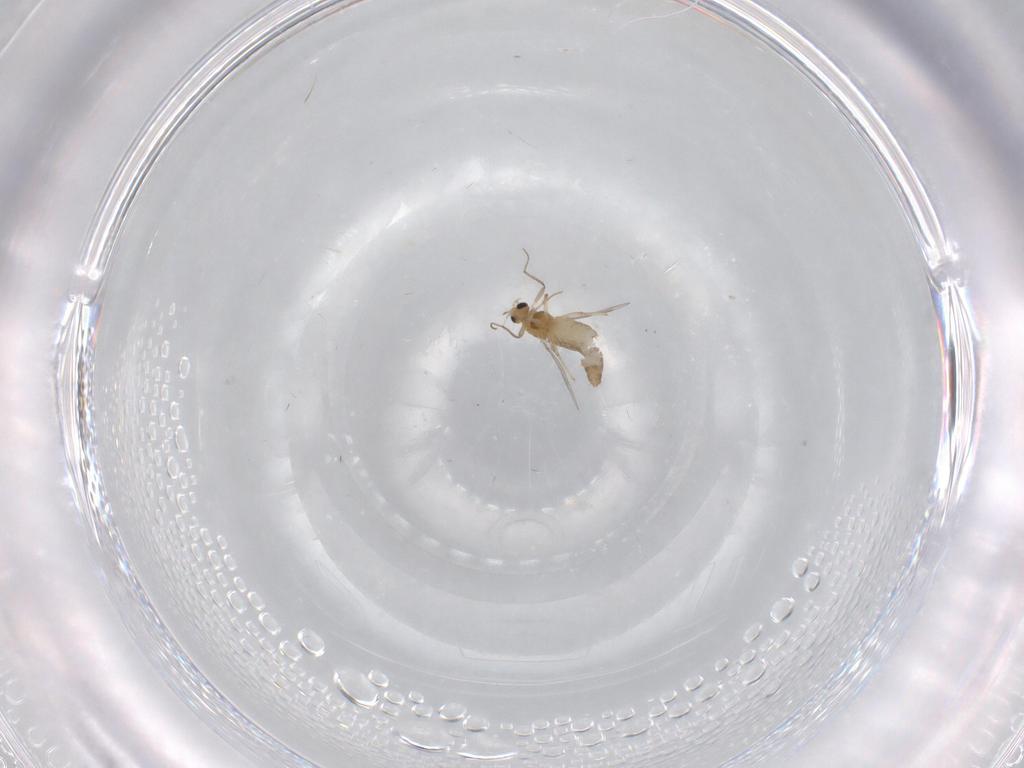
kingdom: Animalia
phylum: Arthropoda
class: Insecta
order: Diptera
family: Chironomidae
